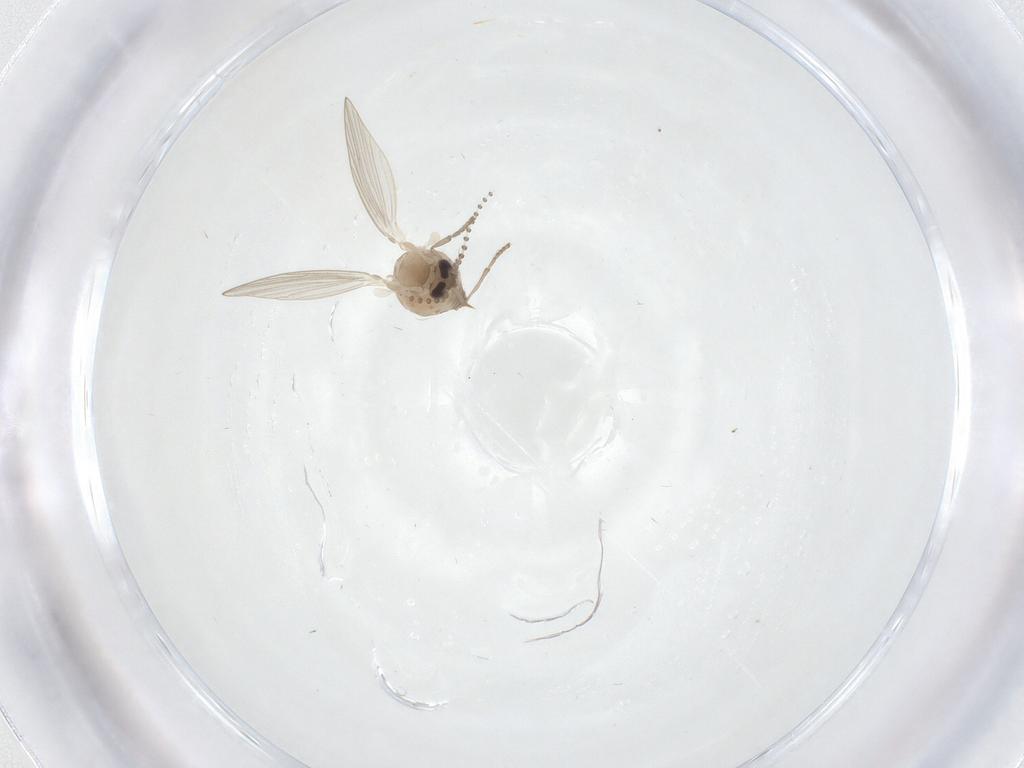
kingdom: Animalia
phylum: Arthropoda
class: Insecta
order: Diptera
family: Psychodidae
